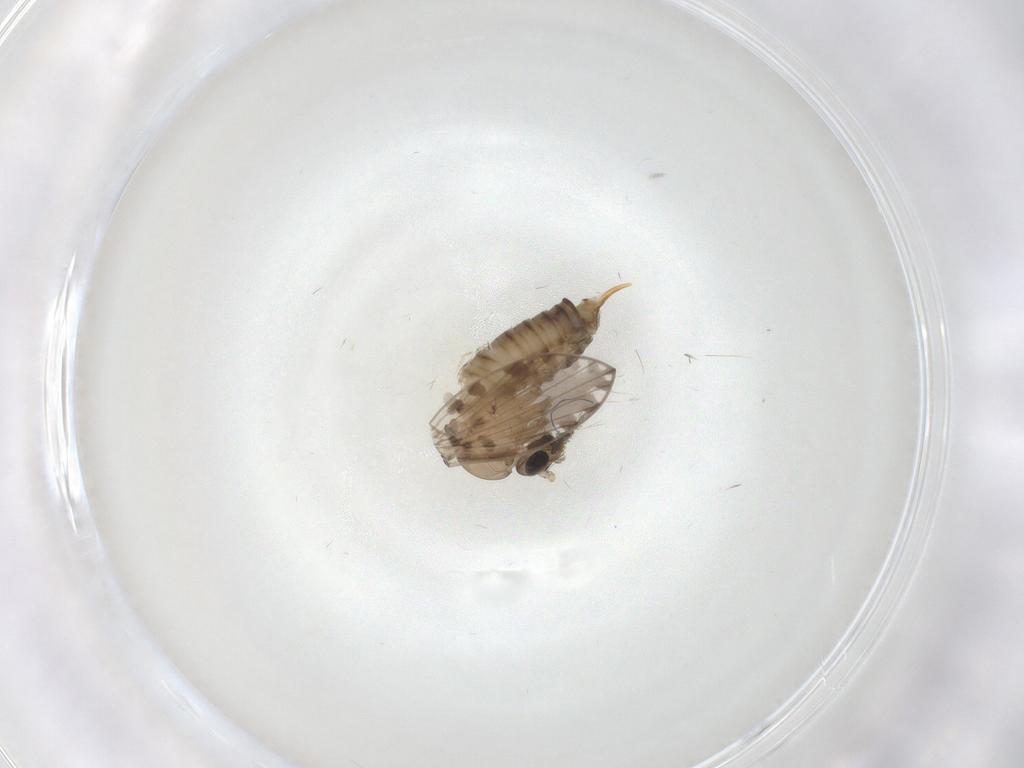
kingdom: Animalia
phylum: Arthropoda
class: Insecta
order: Diptera
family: Psychodidae
